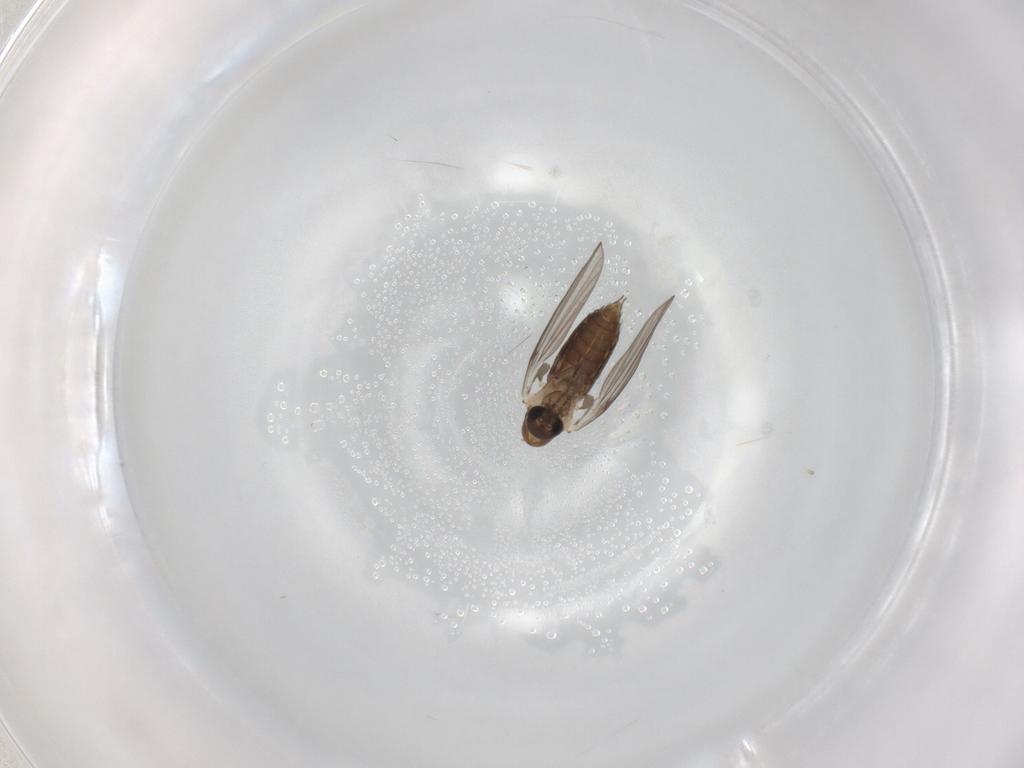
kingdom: Animalia
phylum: Arthropoda
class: Insecta
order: Diptera
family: Psychodidae
